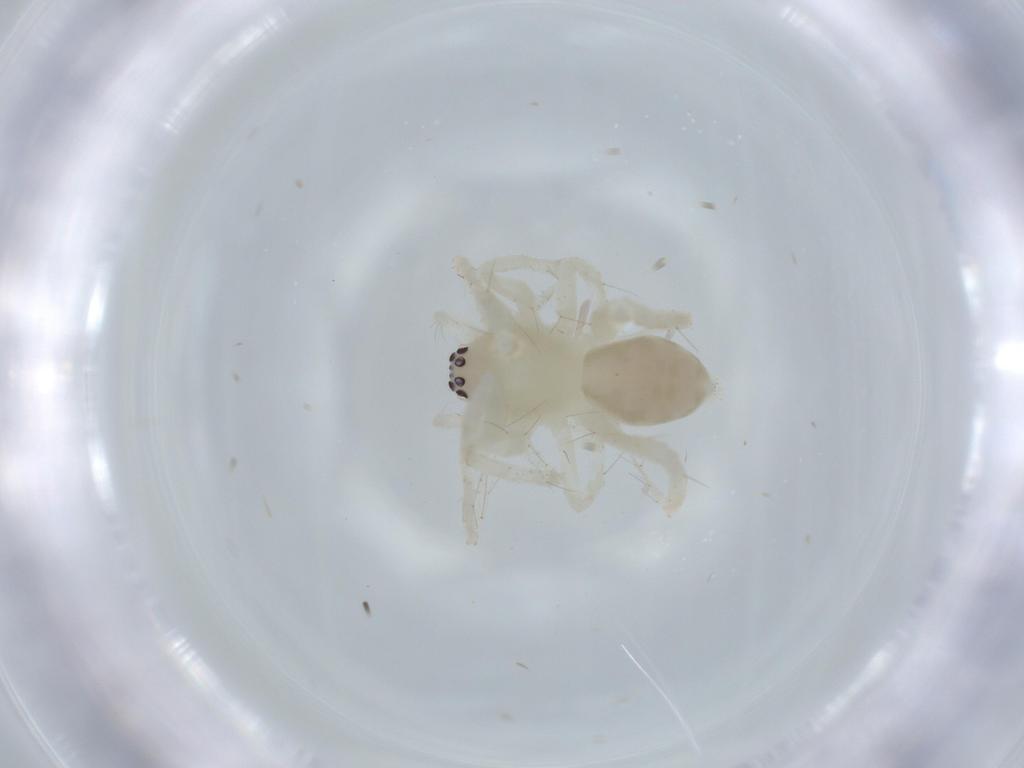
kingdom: Animalia
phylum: Arthropoda
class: Arachnida
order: Araneae
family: Anyphaenidae
